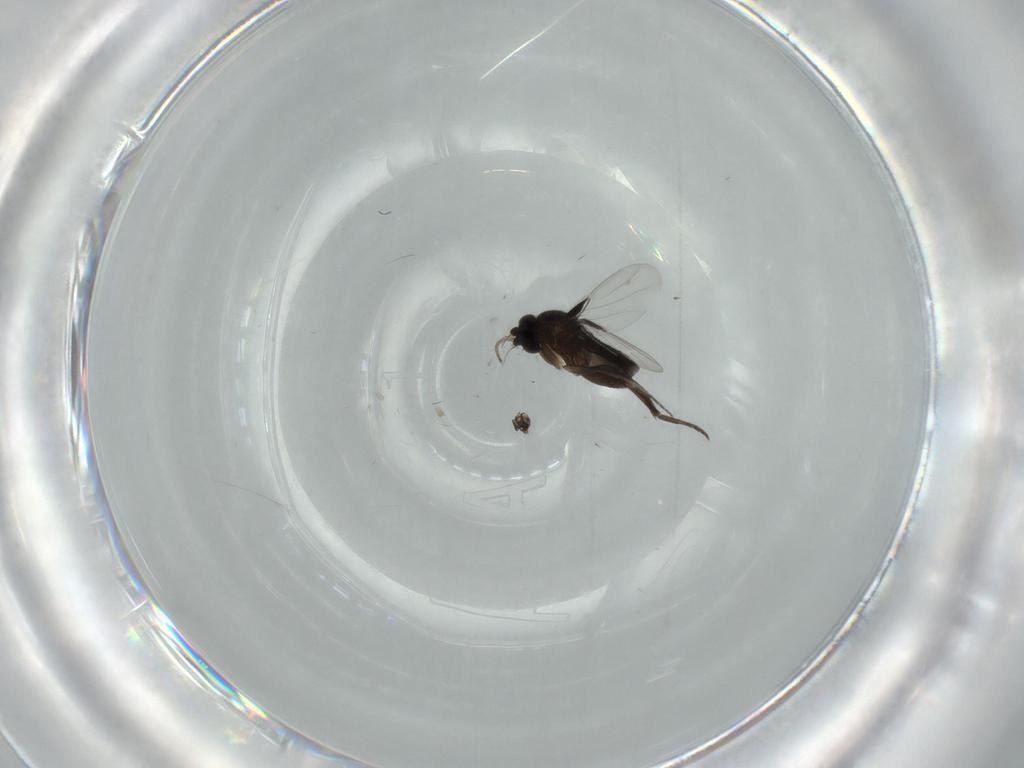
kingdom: Animalia
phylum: Arthropoda
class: Insecta
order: Diptera
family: Phoridae
